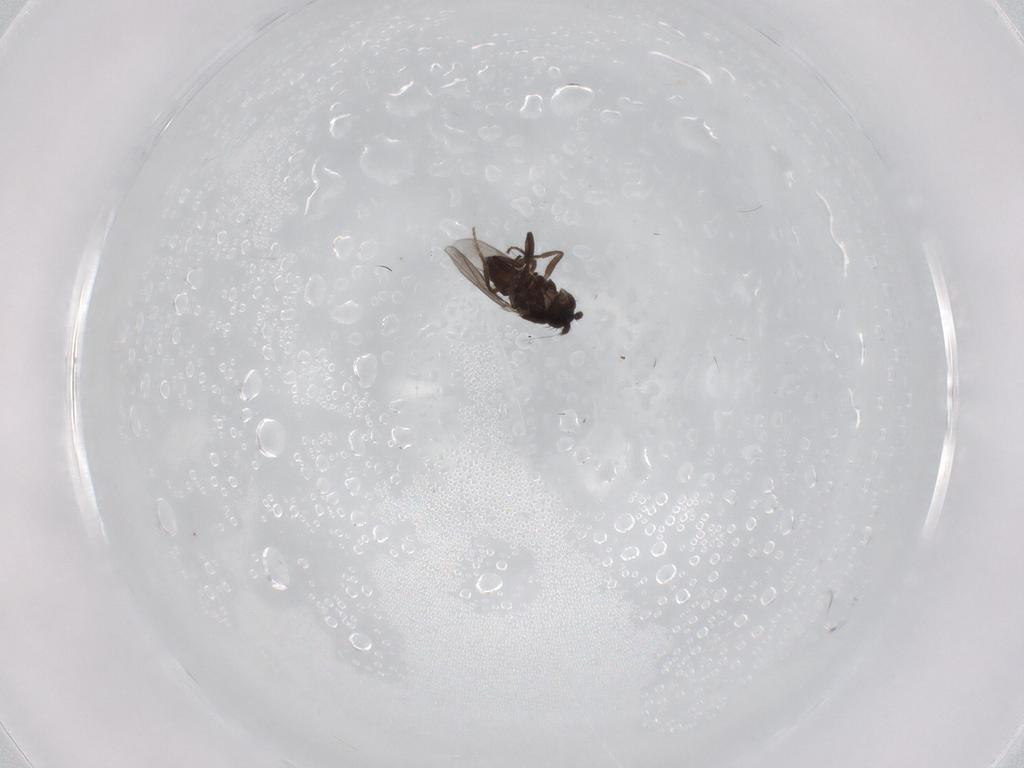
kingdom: Animalia
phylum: Arthropoda
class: Insecta
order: Diptera
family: Sphaeroceridae
